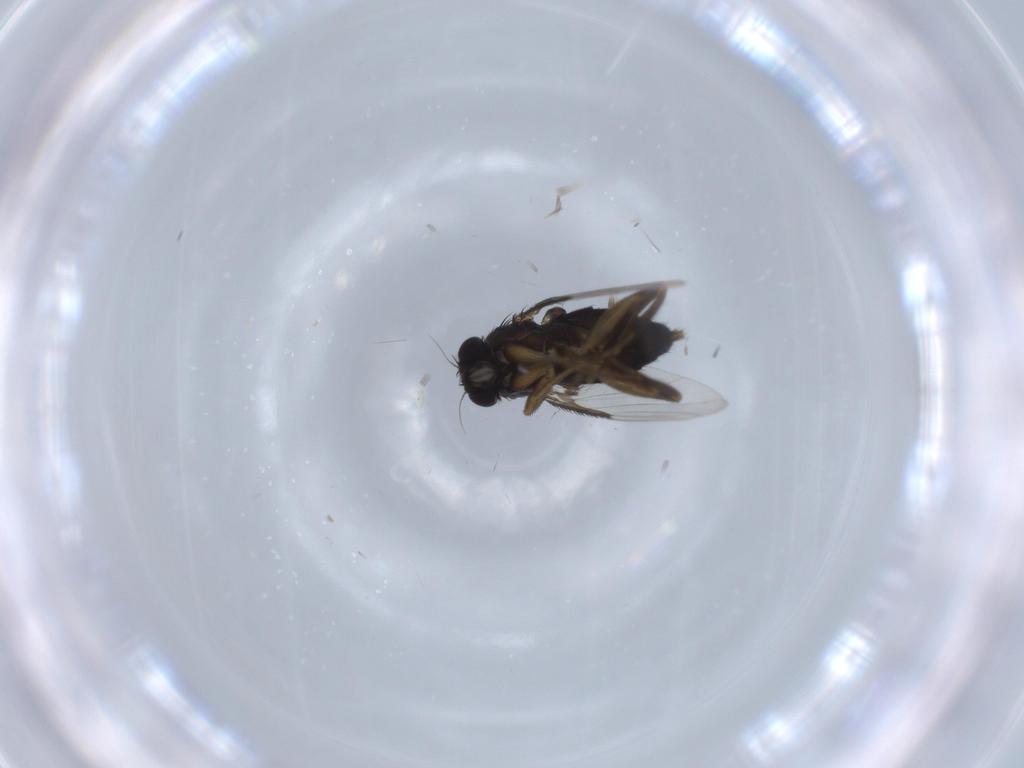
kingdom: Animalia
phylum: Arthropoda
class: Insecta
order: Diptera
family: Phoridae
